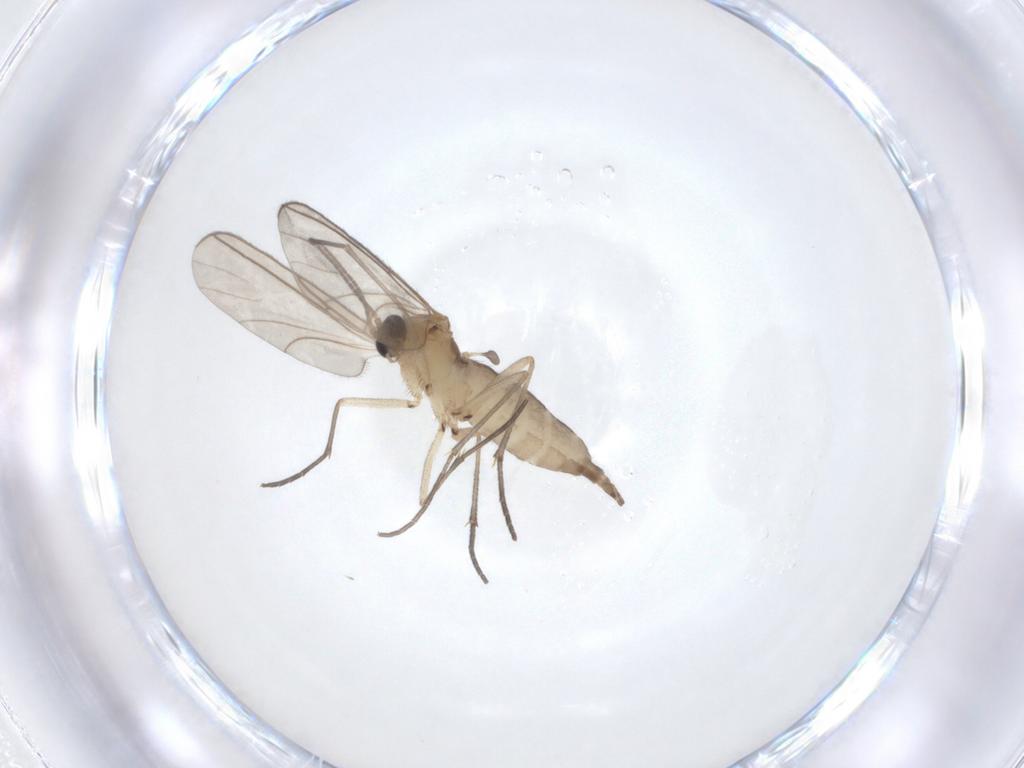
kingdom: Animalia
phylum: Arthropoda
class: Insecta
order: Diptera
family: Sciaridae
